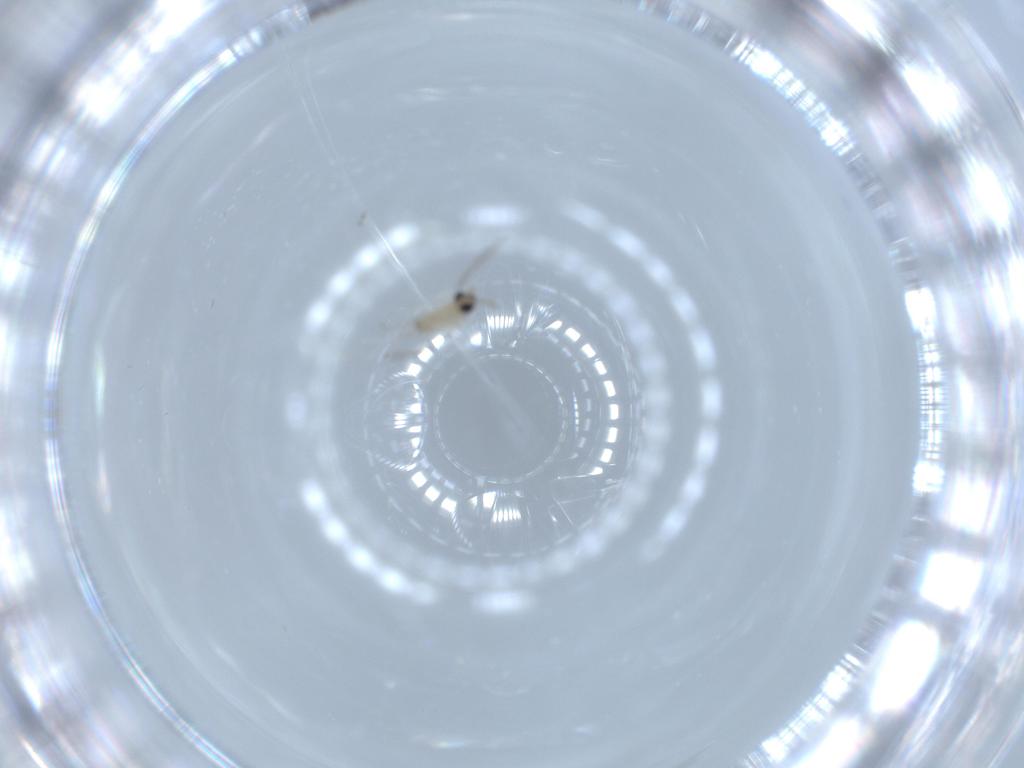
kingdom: Animalia
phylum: Arthropoda
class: Insecta
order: Diptera
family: Cecidomyiidae
